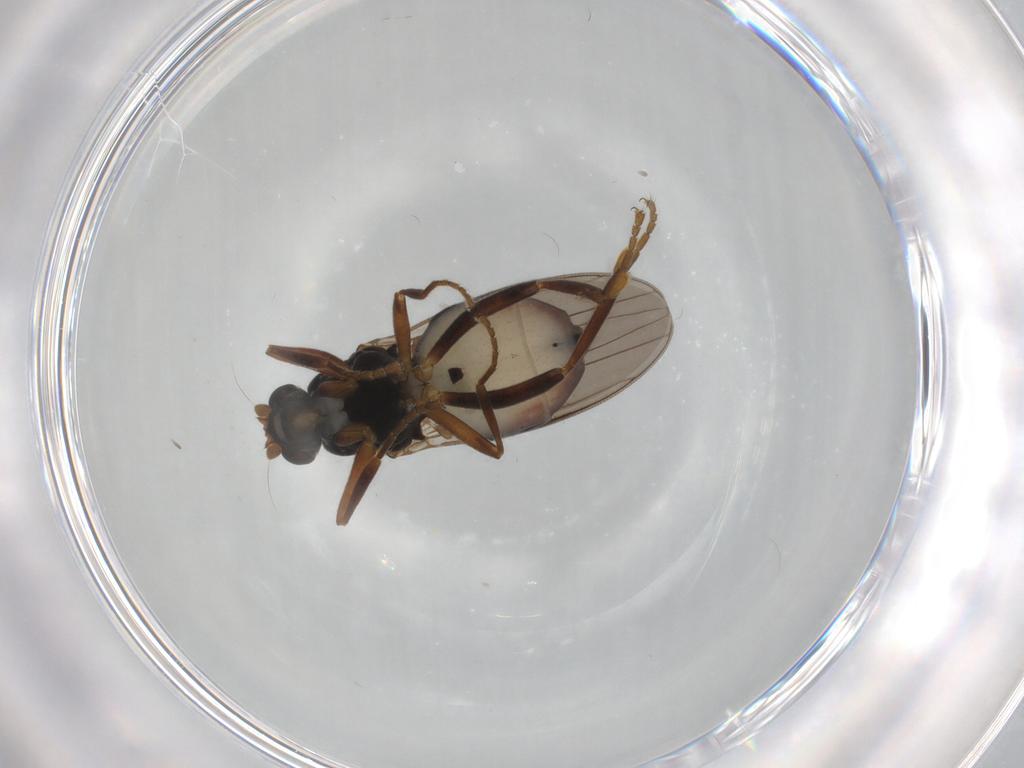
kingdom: Animalia
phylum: Arthropoda
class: Insecta
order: Diptera
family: Sphaeroceridae
